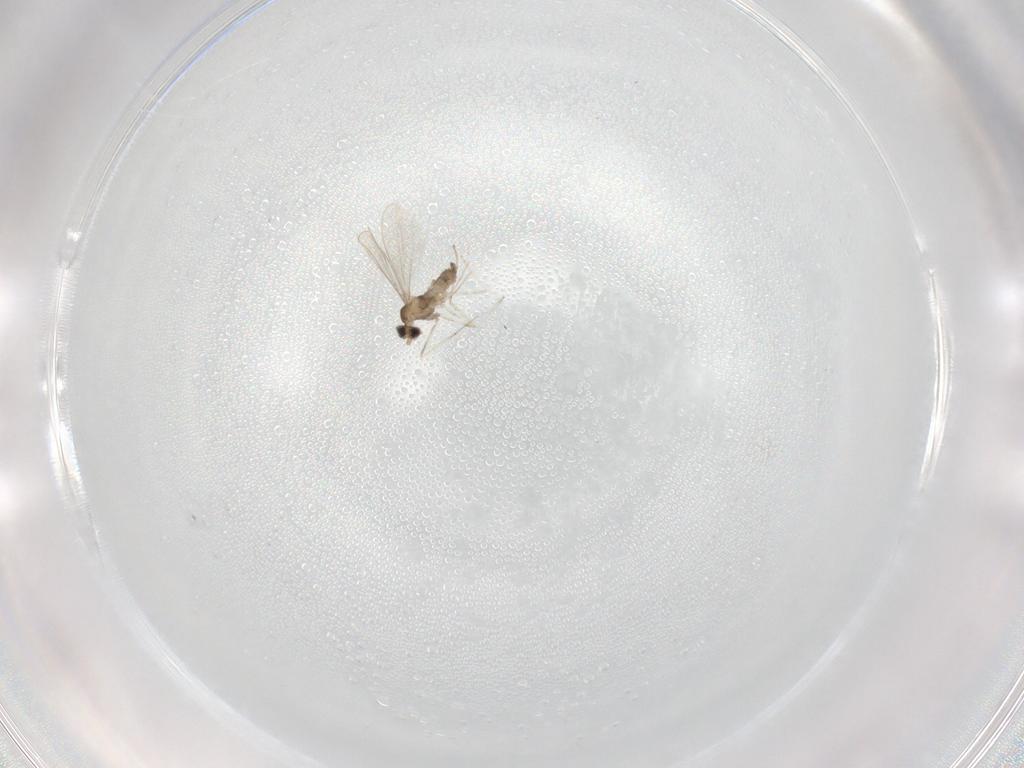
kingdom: Animalia
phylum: Arthropoda
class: Insecta
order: Diptera
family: Cecidomyiidae
